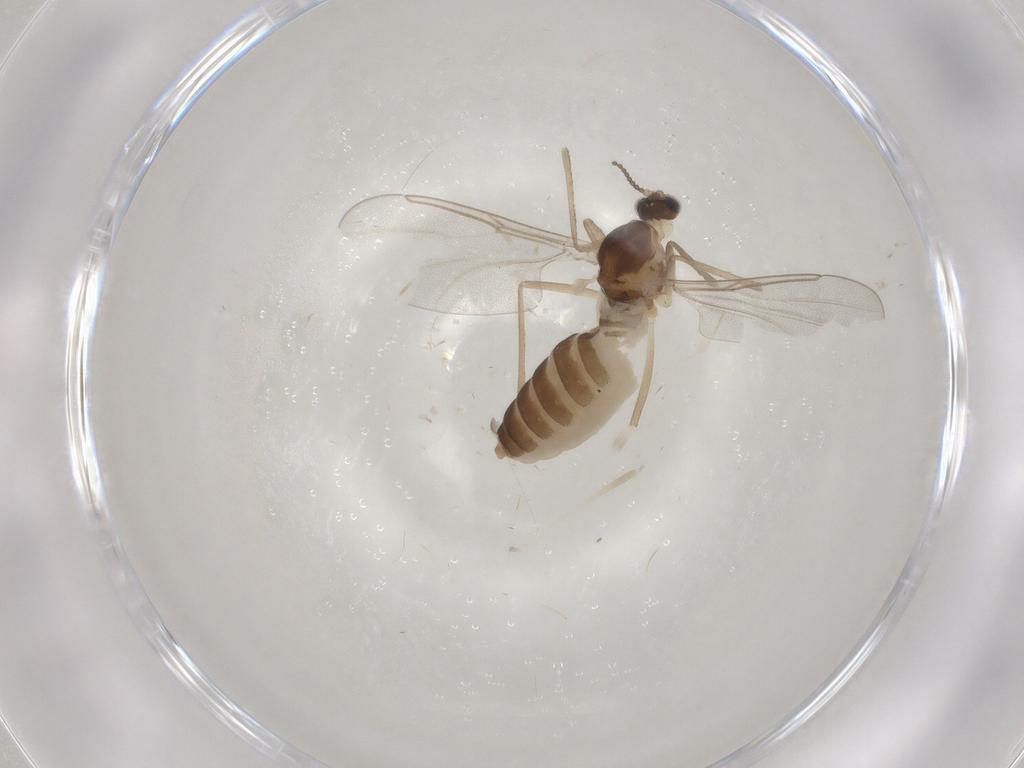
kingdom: Animalia
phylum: Arthropoda
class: Insecta
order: Diptera
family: Cecidomyiidae
